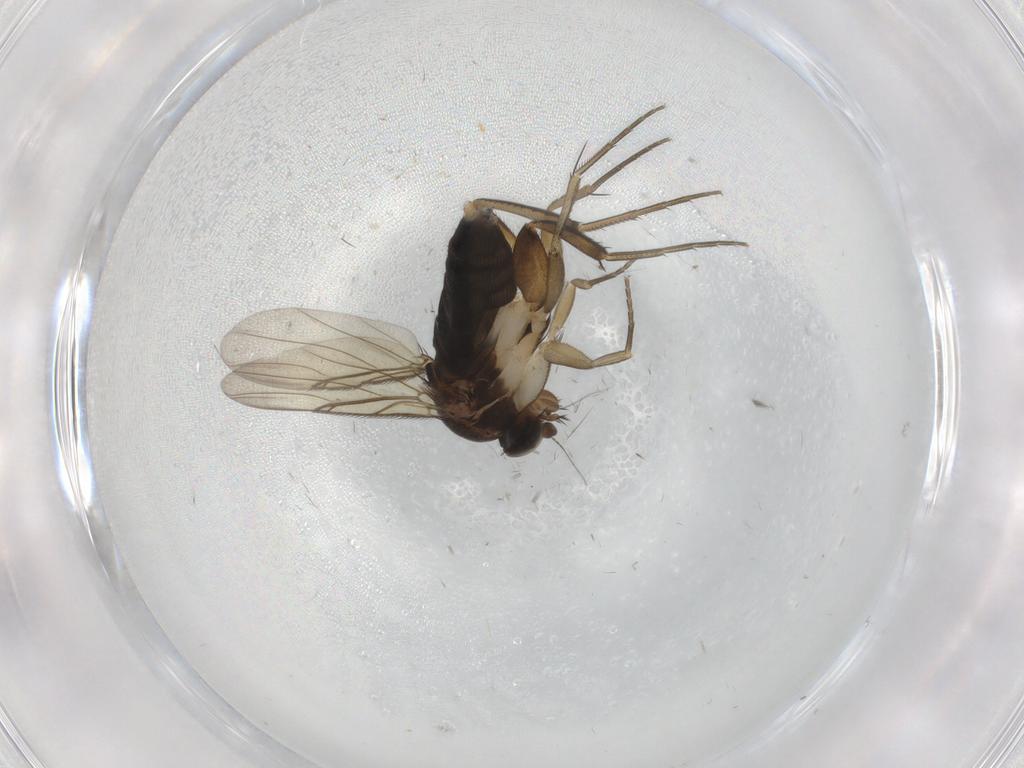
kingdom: Animalia
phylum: Arthropoda
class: Insecta
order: Diptera
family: Phoridae
